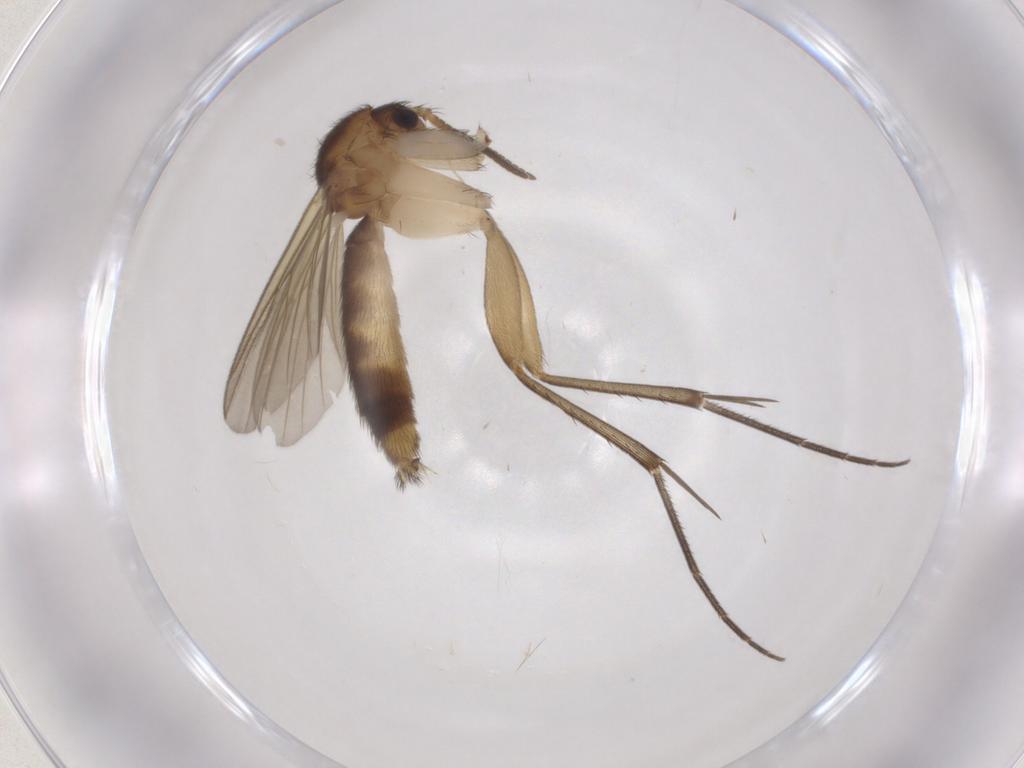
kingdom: Animalia
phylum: Arthropoda
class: Insecta
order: Diptera
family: Mycetophilidae
